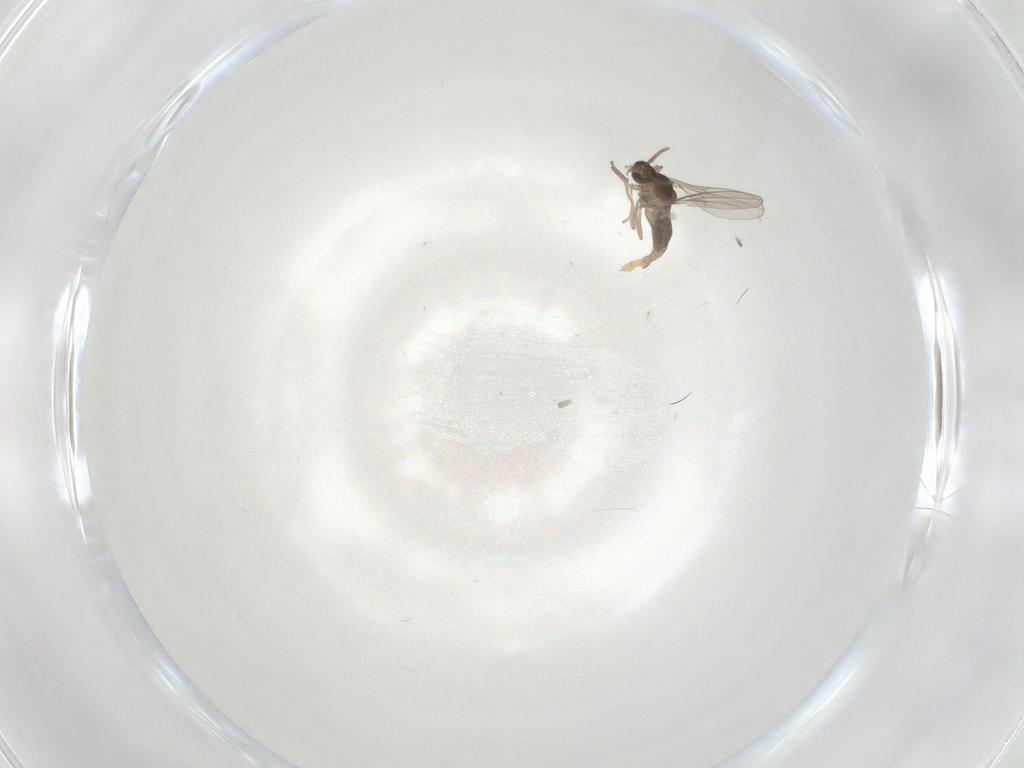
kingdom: Animalia
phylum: Arthropoda
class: Insecta
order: Diptera
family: Cecidomyiidae
